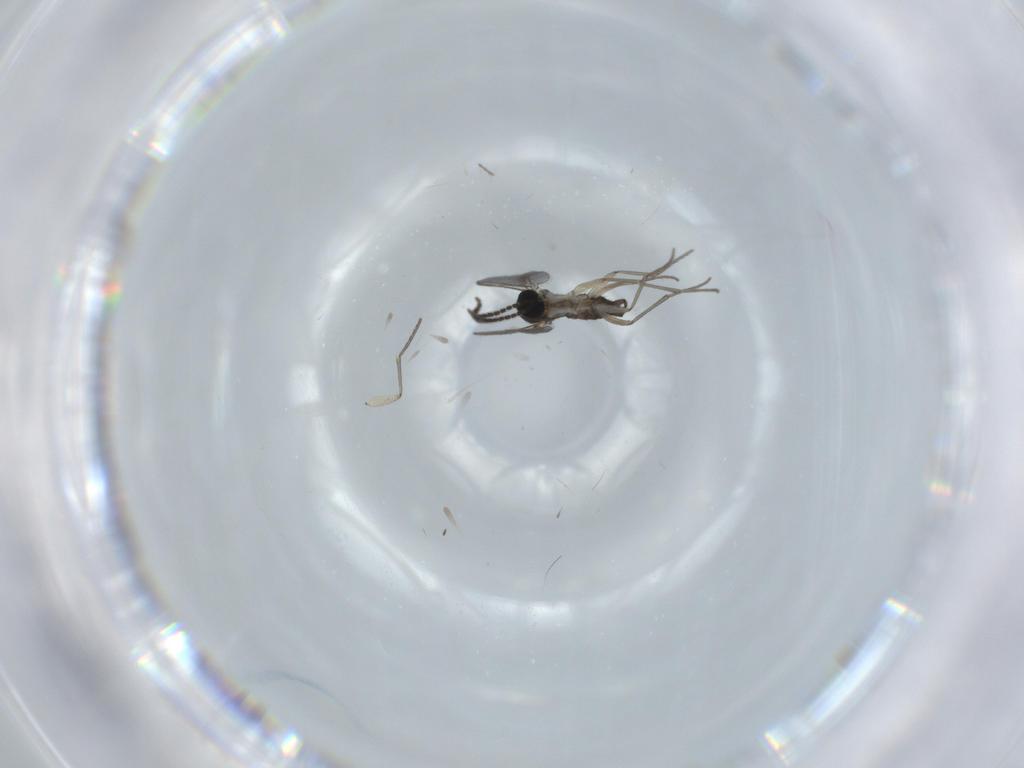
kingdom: Animalia
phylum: Arthropoda
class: Insecta
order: Diptera
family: Sciaridae
